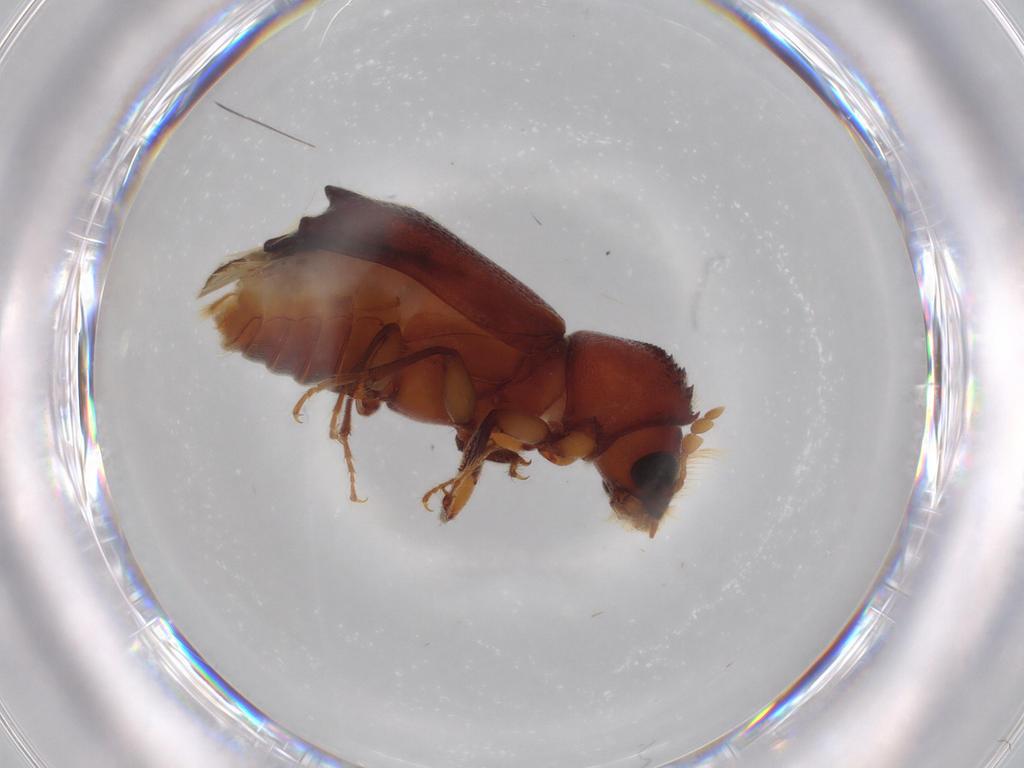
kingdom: Animalia
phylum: Arthropoda
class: Insecta
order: Coleoptera
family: Bostrichidae
